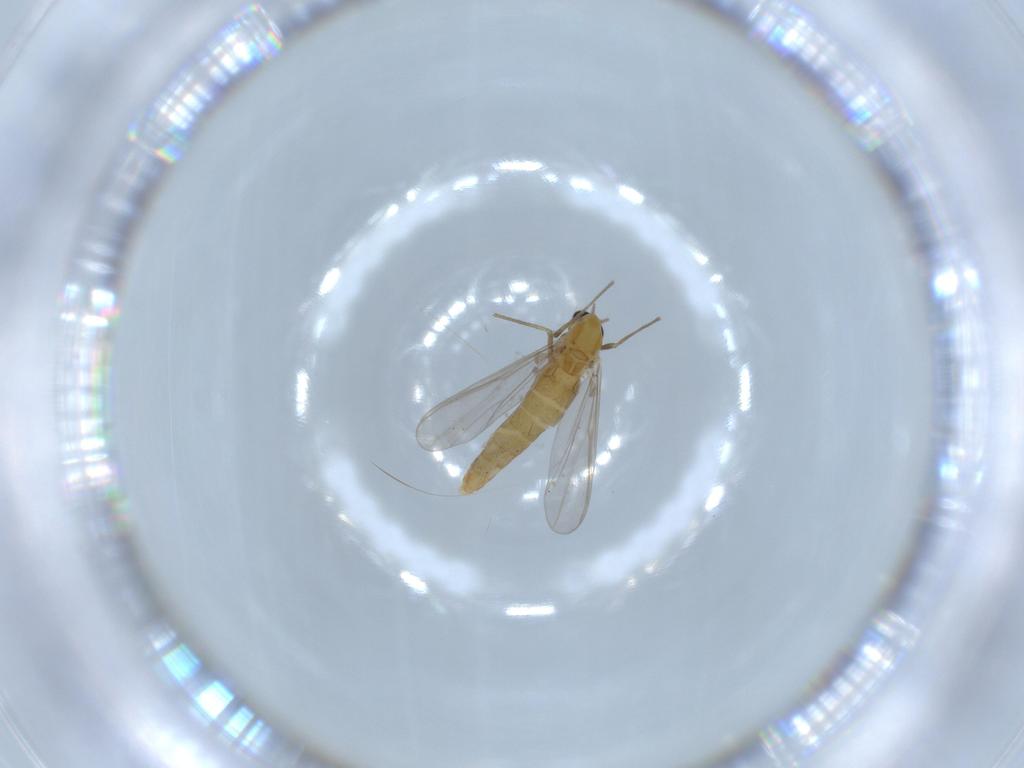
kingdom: Animalia
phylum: Arthropoda
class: Insecta
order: Diptera
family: Chironomidae
